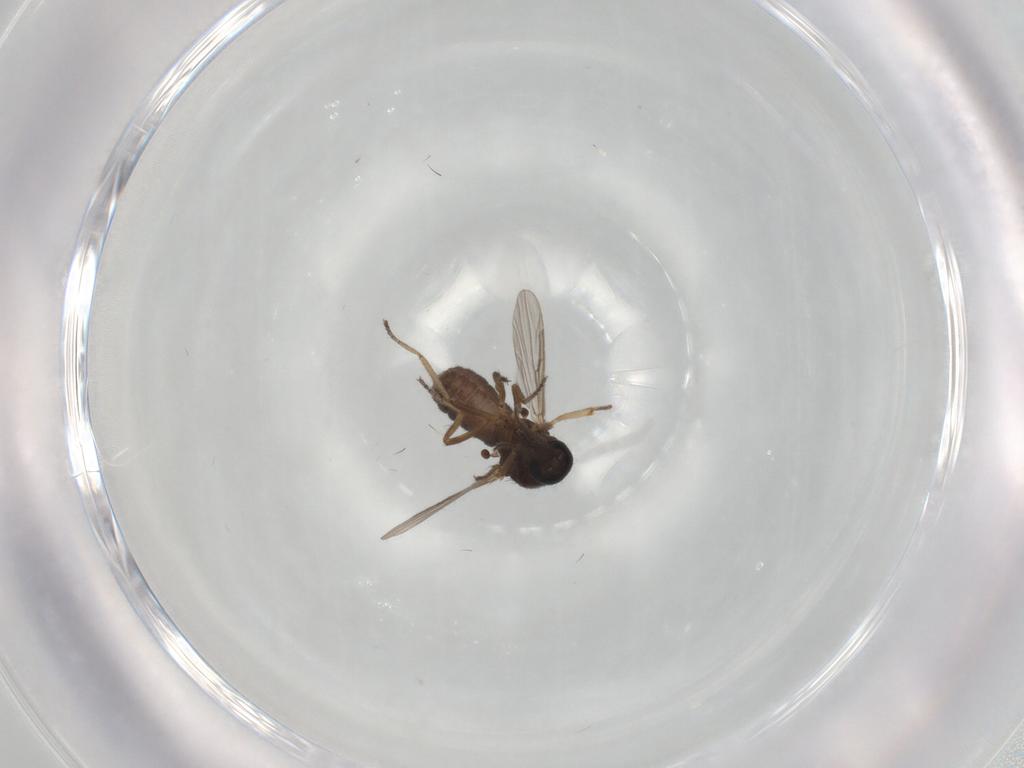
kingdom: Animalia
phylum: Arthropoda
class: Insecta
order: Diptera
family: Ceratopogonidae
